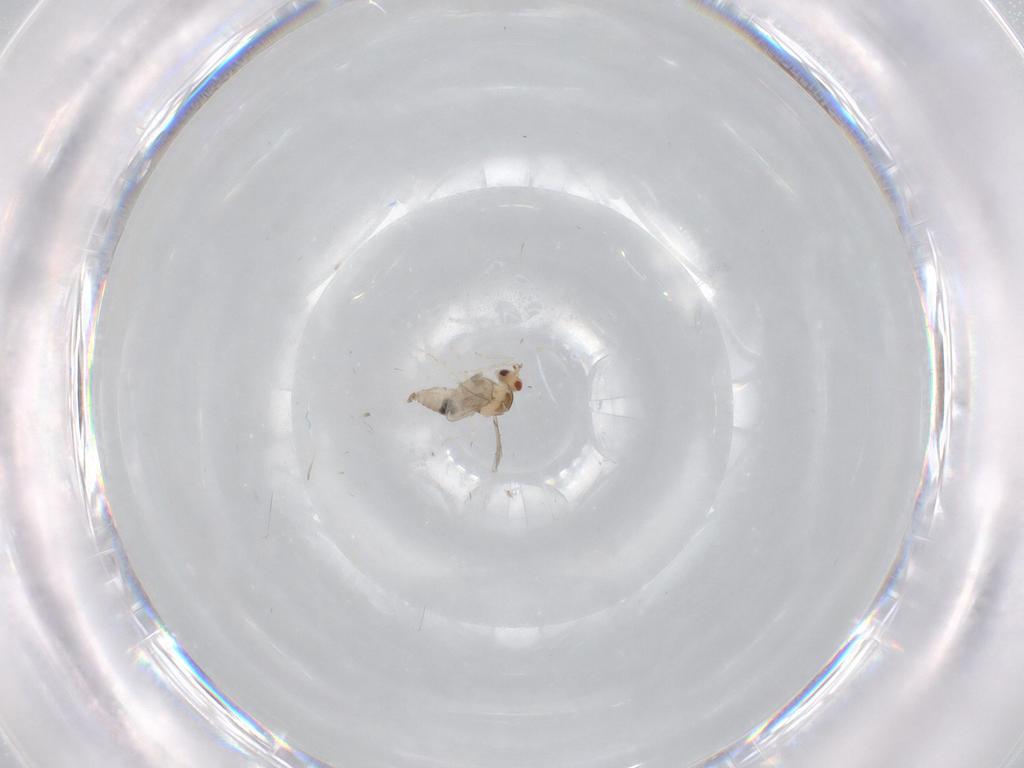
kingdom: Animalia
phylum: Arthropoda
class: Insecta
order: Diptera
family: Cecidomyiidae
